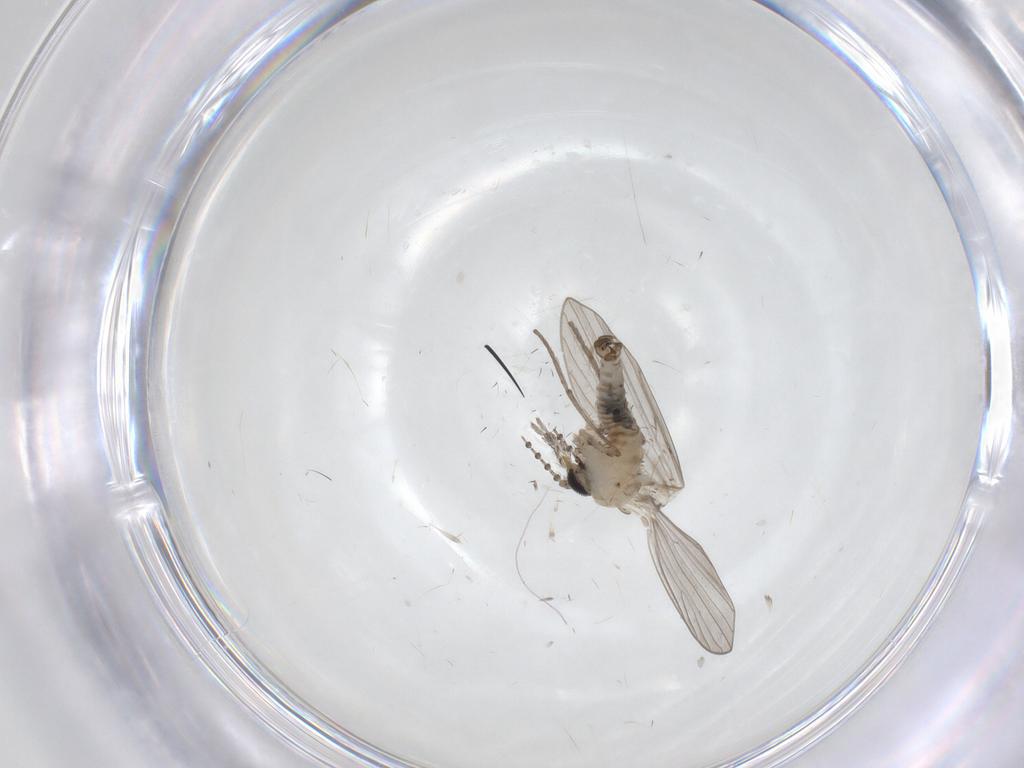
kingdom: Animalia
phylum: Arthropoda
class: Insecta
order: Diptera
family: Psychodidae
